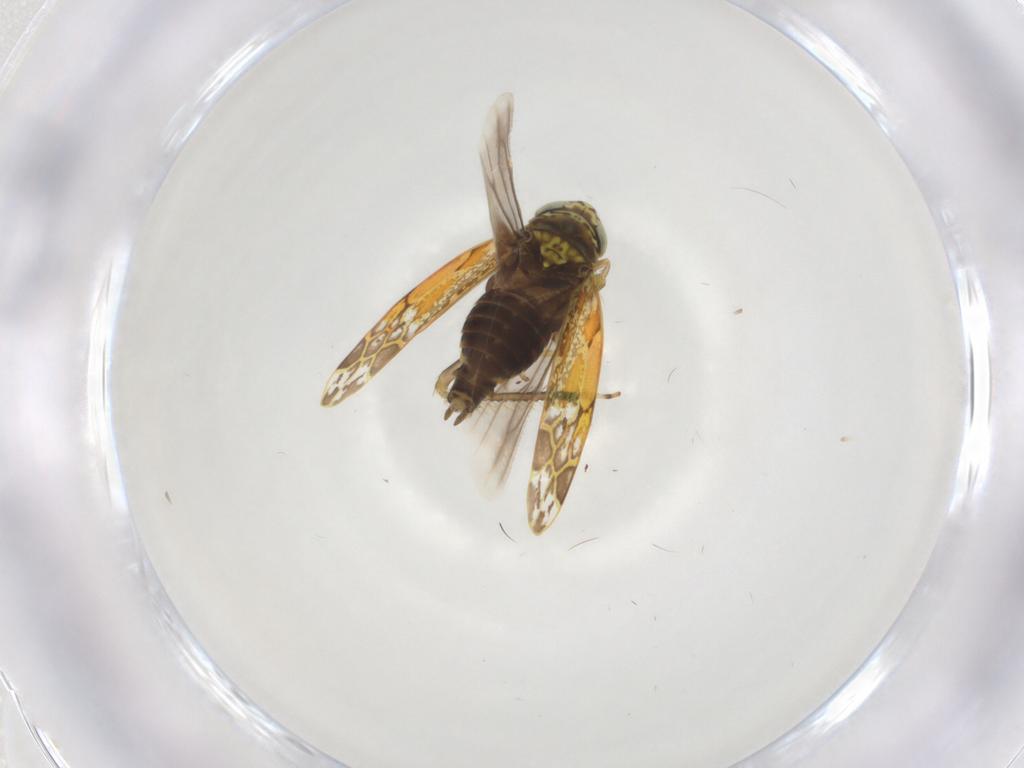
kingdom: Animalia
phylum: Arthropoda
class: Insecta
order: Hemiptera
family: Cicadellidae
